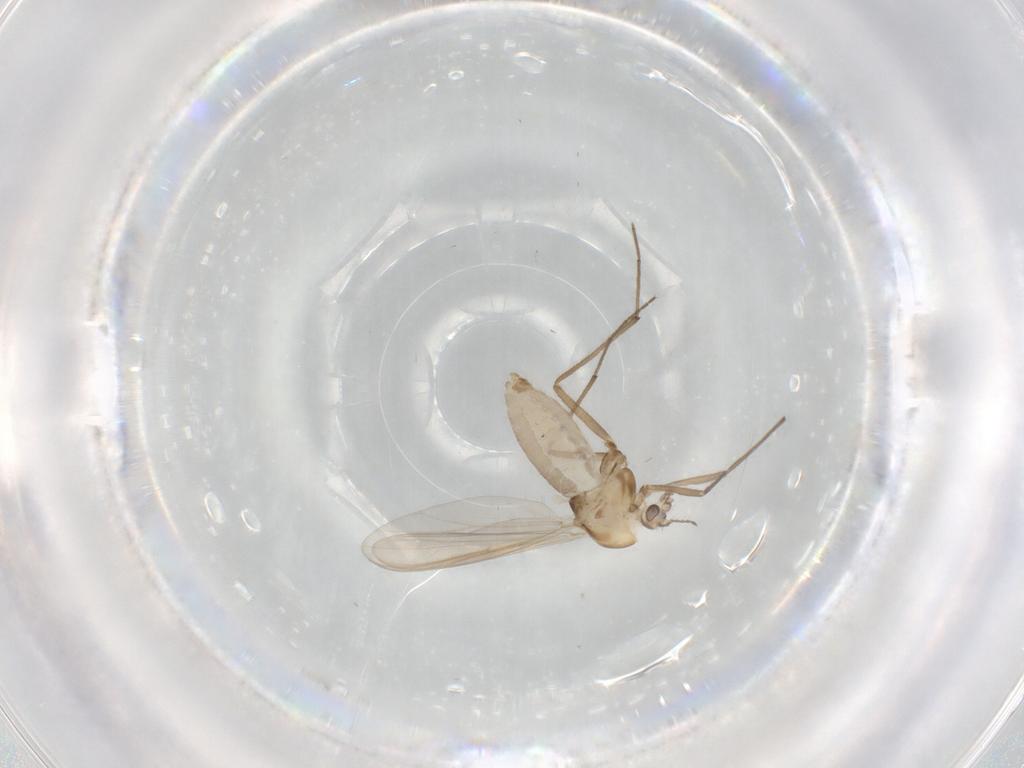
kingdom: Animalia
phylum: Arthropoda
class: Insecta
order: Diptera
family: Chironomidae
